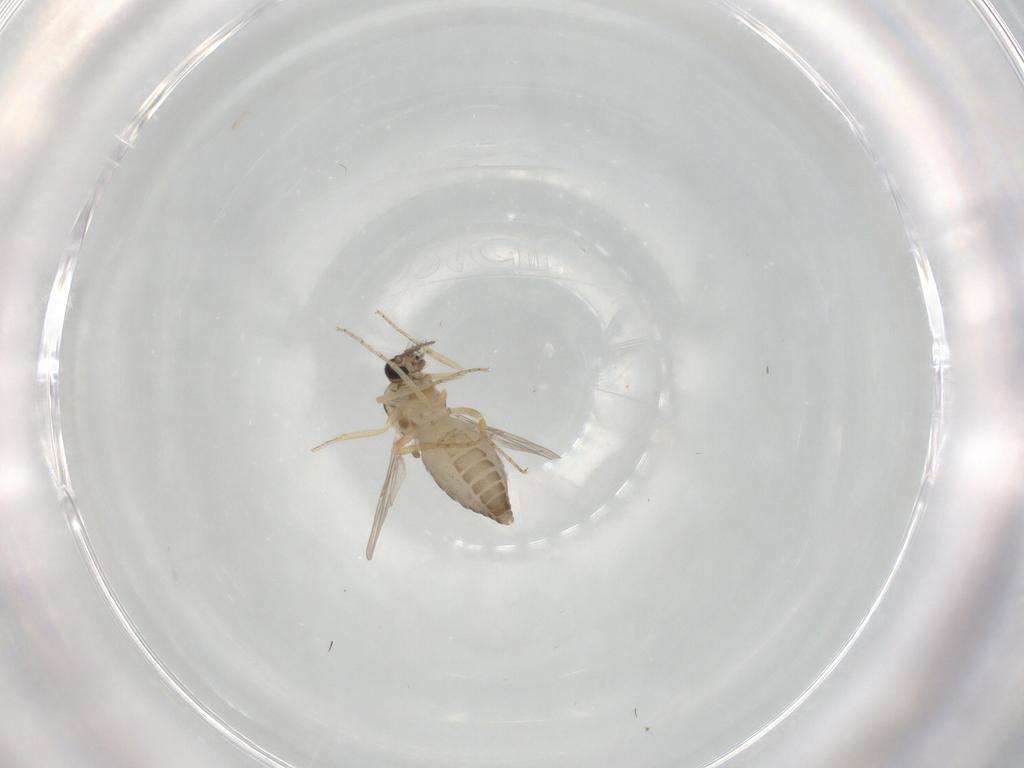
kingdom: Animalia
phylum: Arthropoda
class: Insecta
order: Diptera
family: Ceratopogonidae
